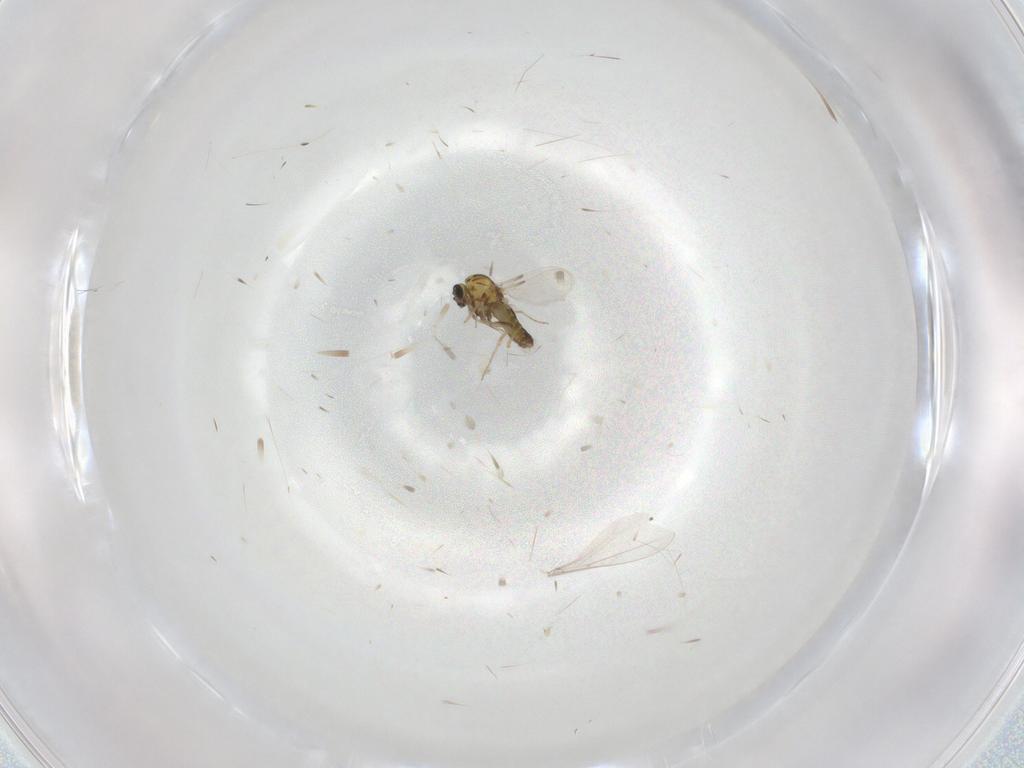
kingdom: Animalia
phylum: Arthropoda
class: Insecta
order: Diptera
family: Ceratopogonidae
